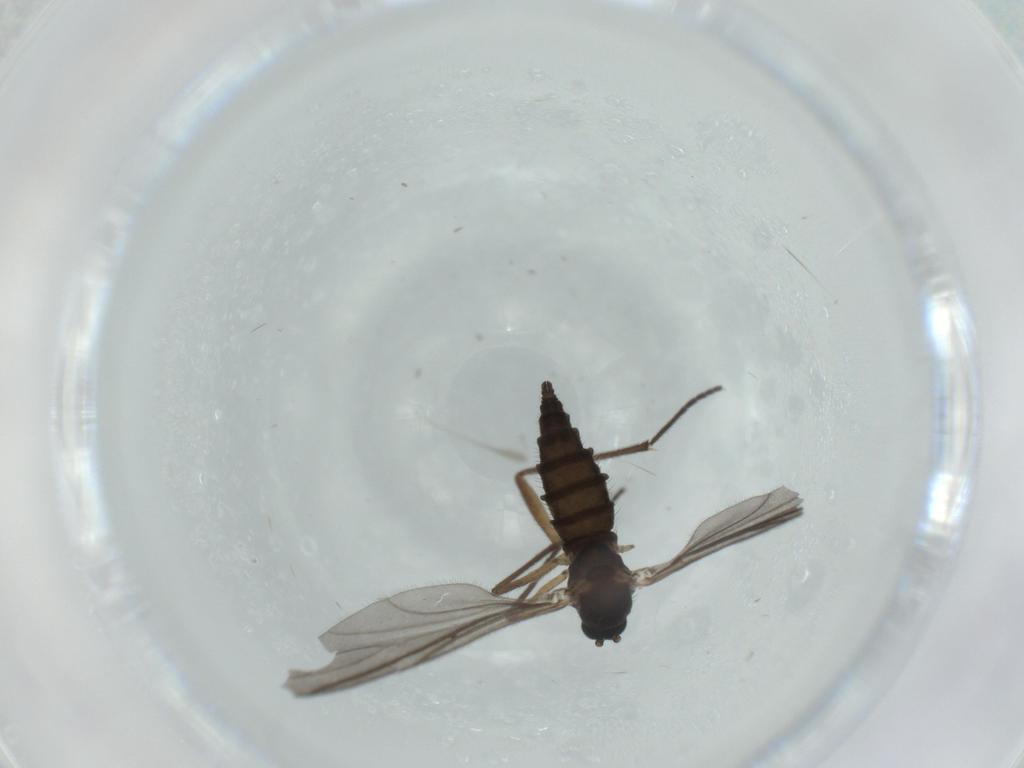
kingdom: Animalia
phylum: Arthropoda
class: Insecta
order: Diptera
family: Sciaridae
